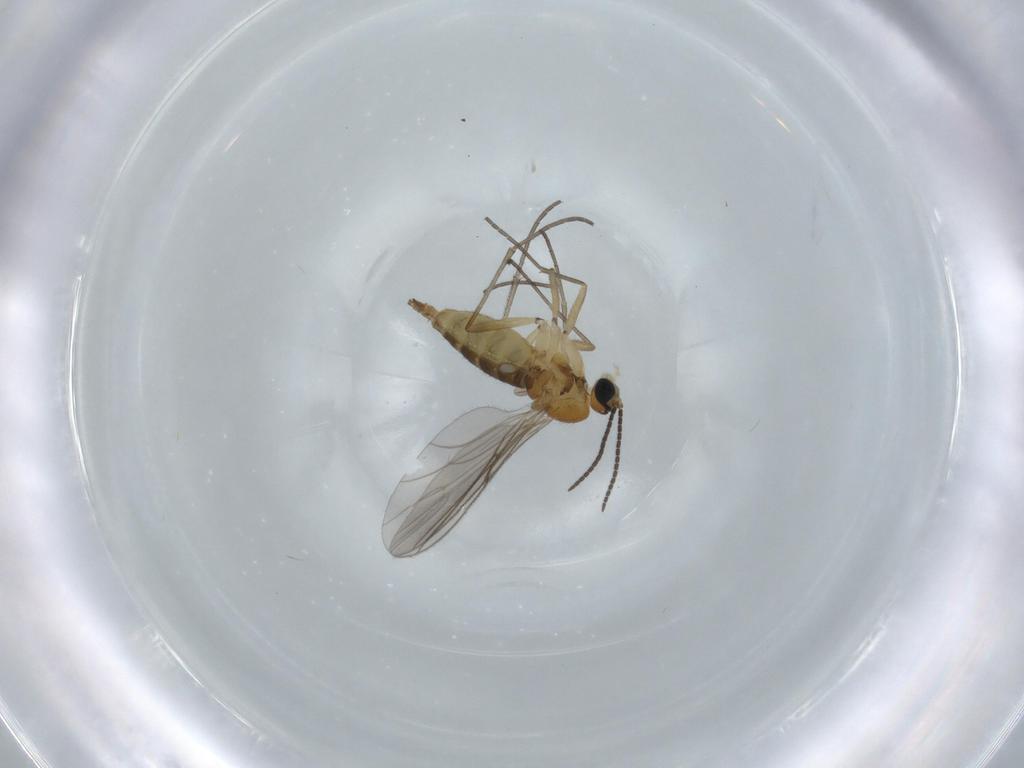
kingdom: Animalia
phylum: Arthropoda
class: Insecta
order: Diptera
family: Sciaridae
